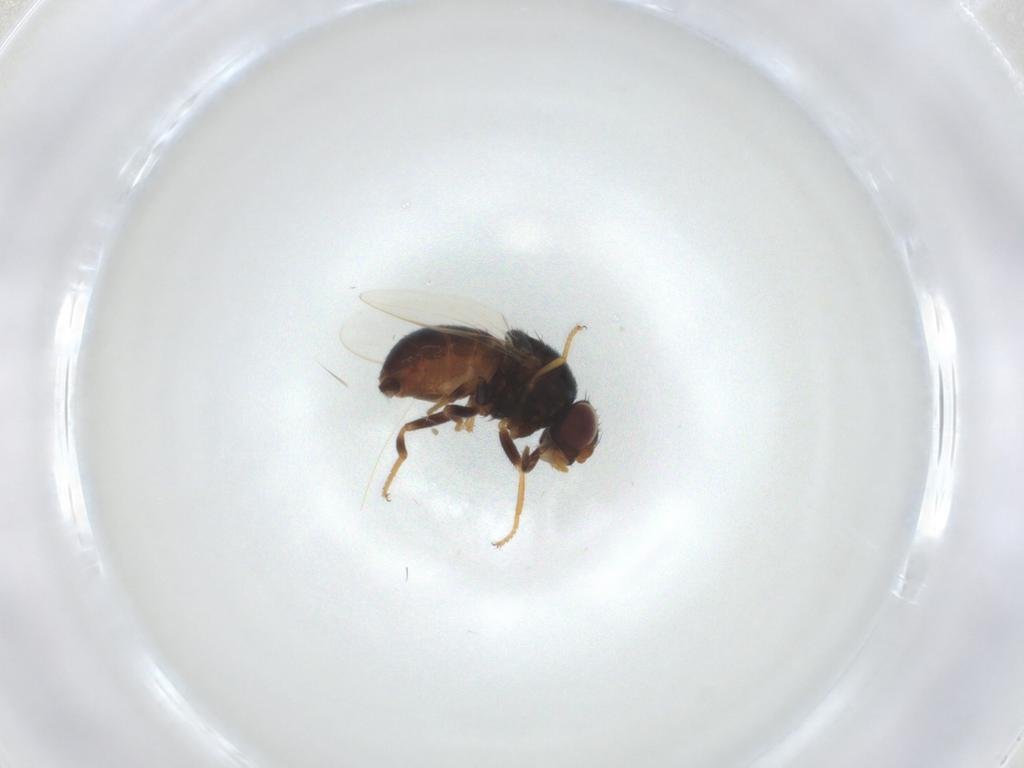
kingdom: Animalia
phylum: Arthropoda
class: Insecta
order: Diptera
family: Chloropidae
